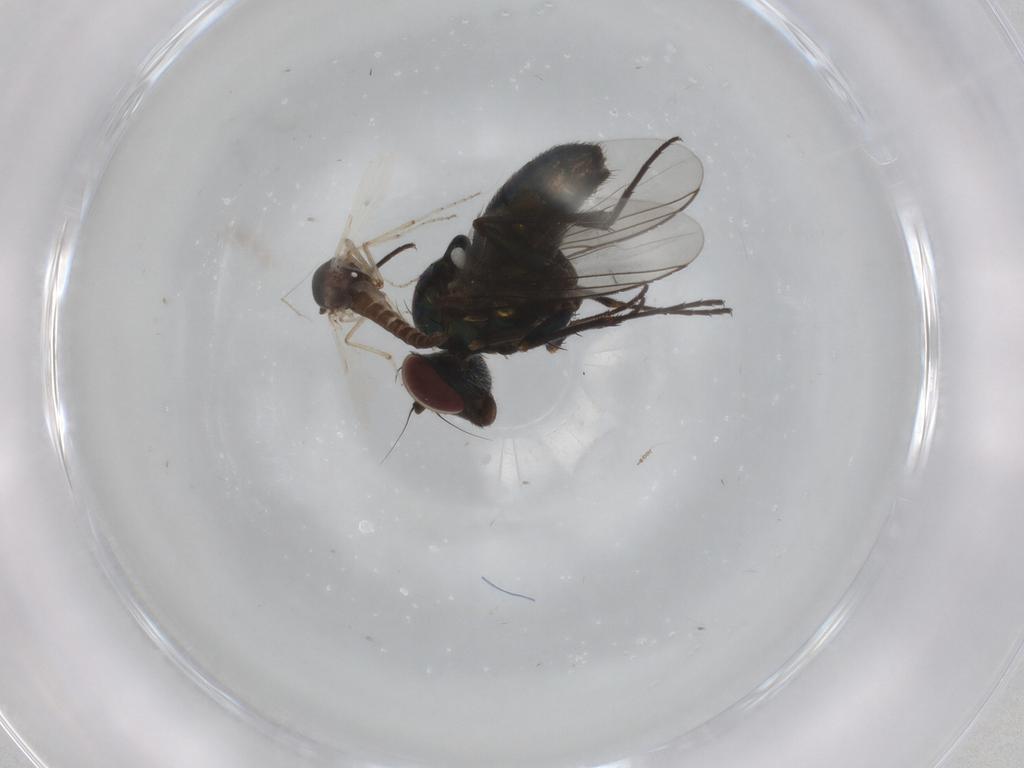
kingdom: Animalia
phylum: Arthropoda
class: Insecta
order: Diptera
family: Dolichopodidae
